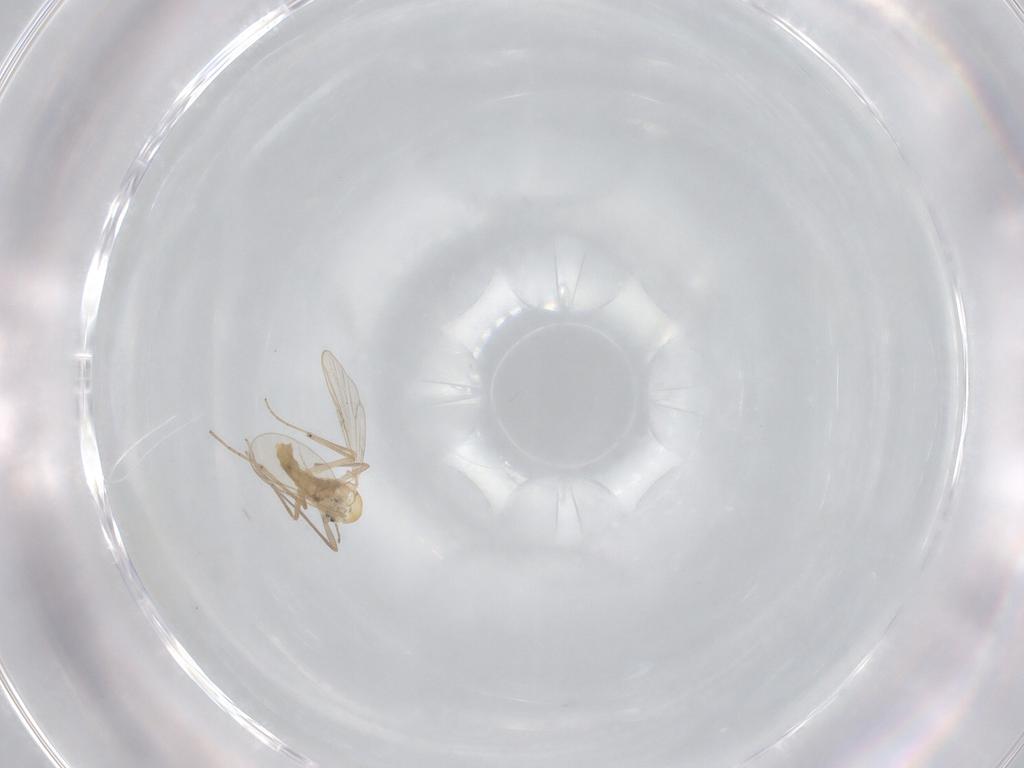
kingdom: Animalia
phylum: Arthropoda
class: Insecta
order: Diptera
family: Chironomidae
